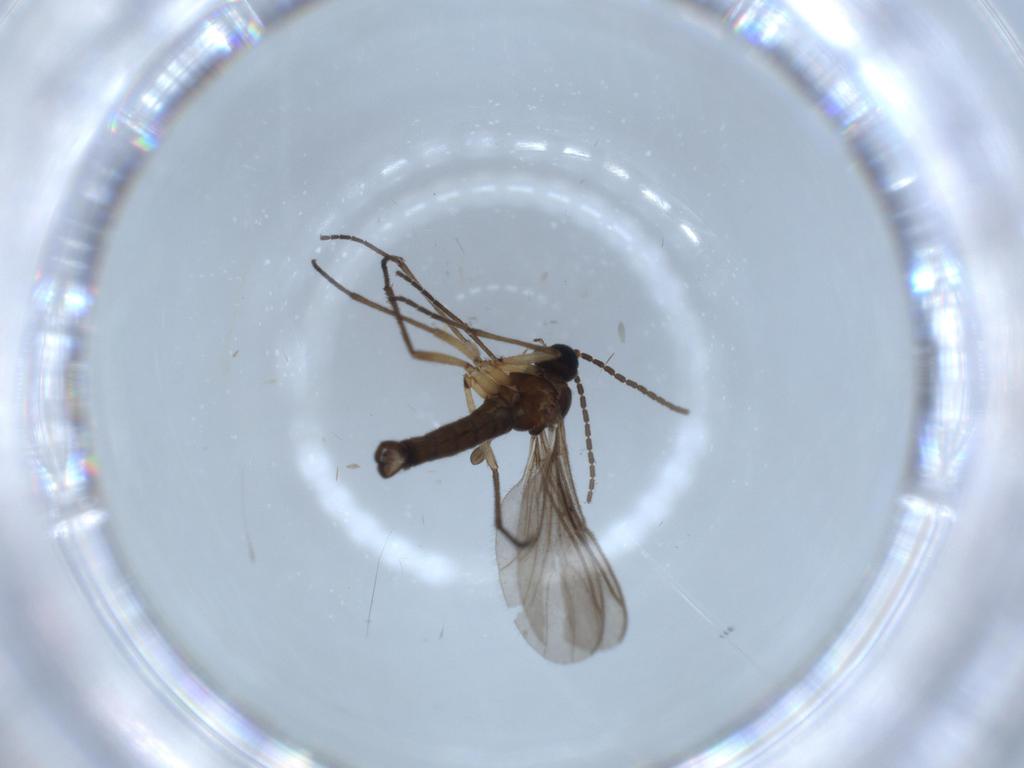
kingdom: Animalia
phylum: Arthropoda
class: Insecta
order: Diptera
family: Sciaridae
